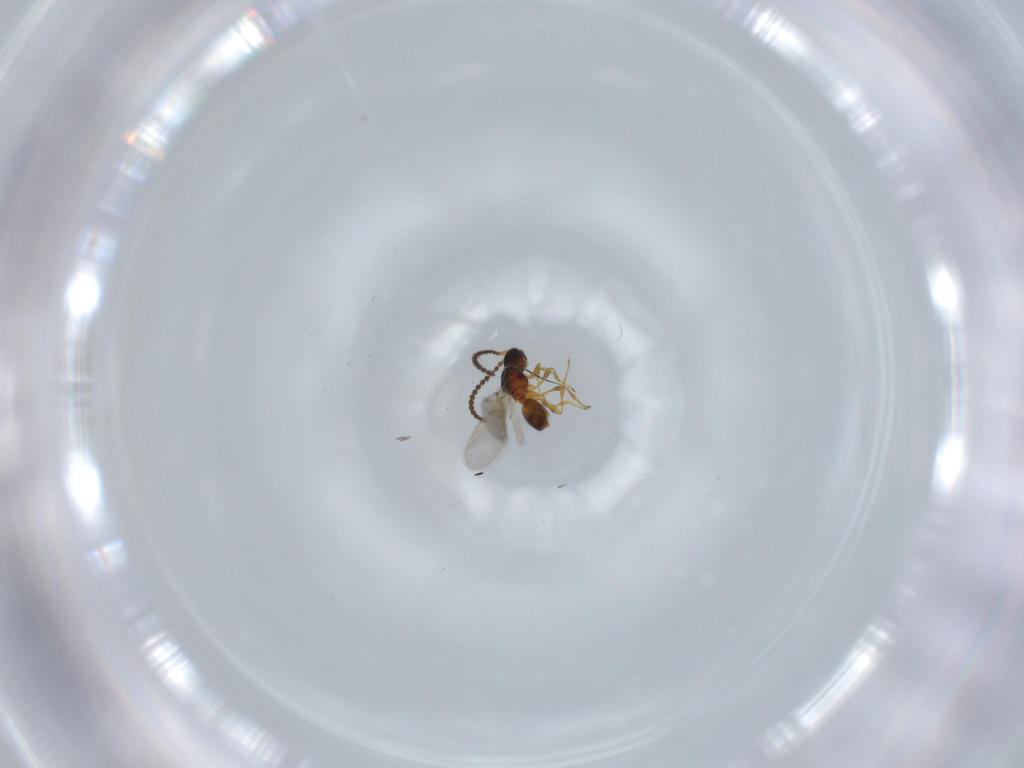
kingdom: Animalia
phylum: Arthropoda
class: Insecta
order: Hymenoptera
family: Diapriidae
